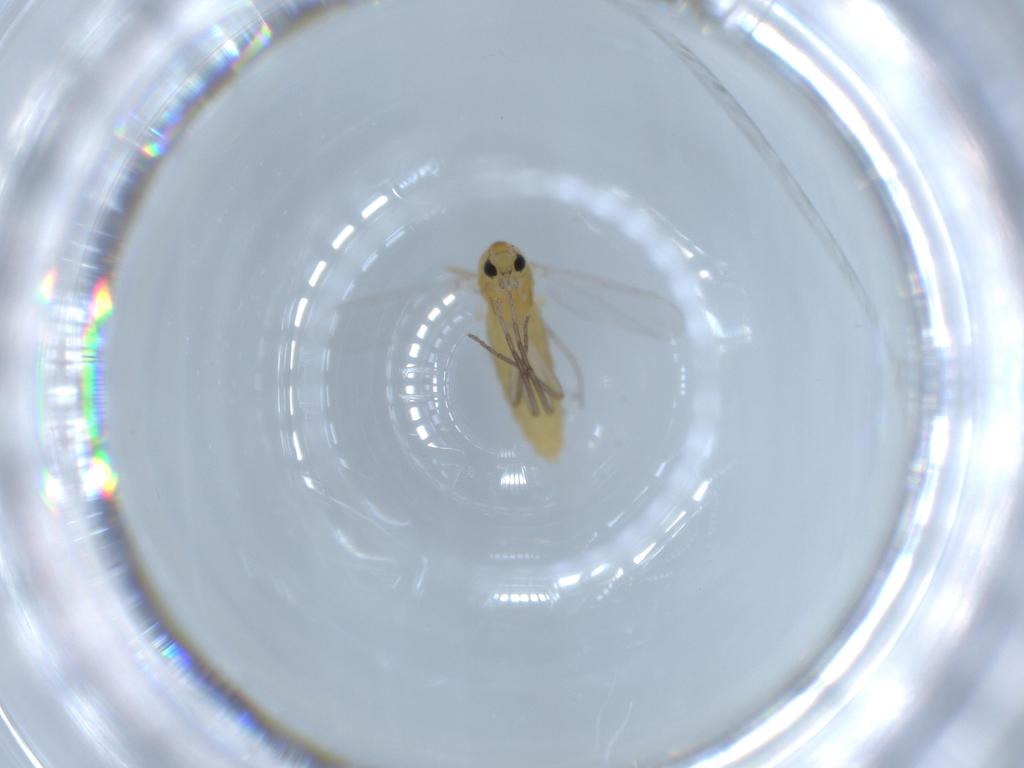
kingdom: Animalia
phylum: Arthropoda
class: Insecta
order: Diptera
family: Chironomidae
